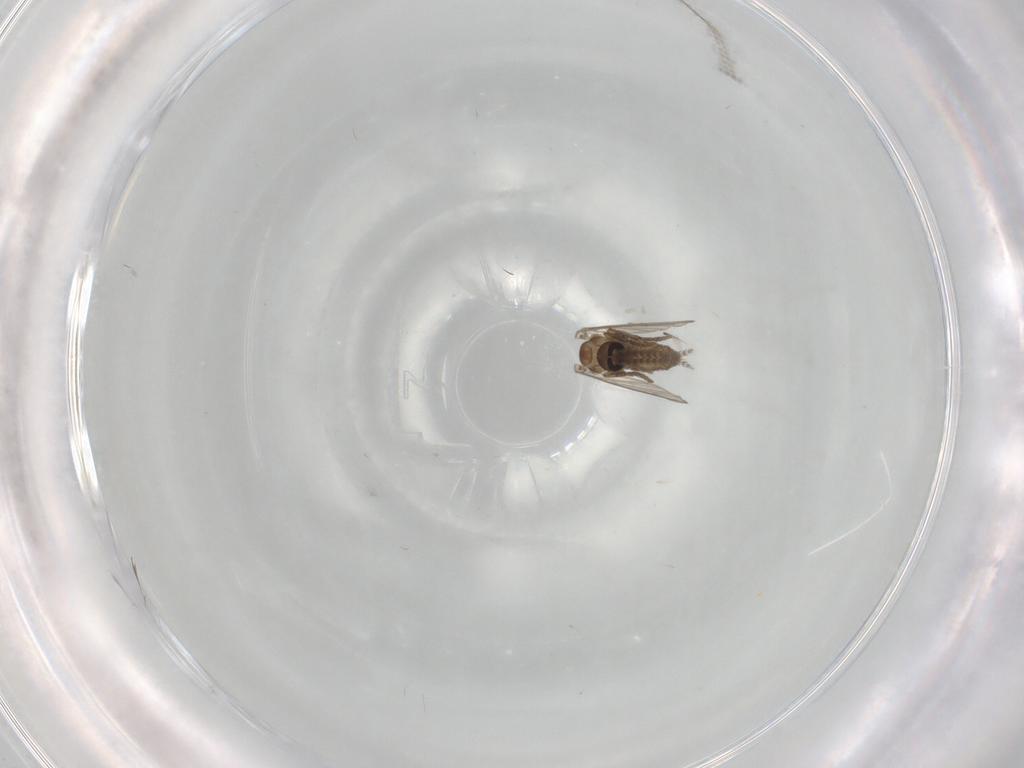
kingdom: Animalia
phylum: Arthropoda
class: Insecta
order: Diptera
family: Psychodidae
